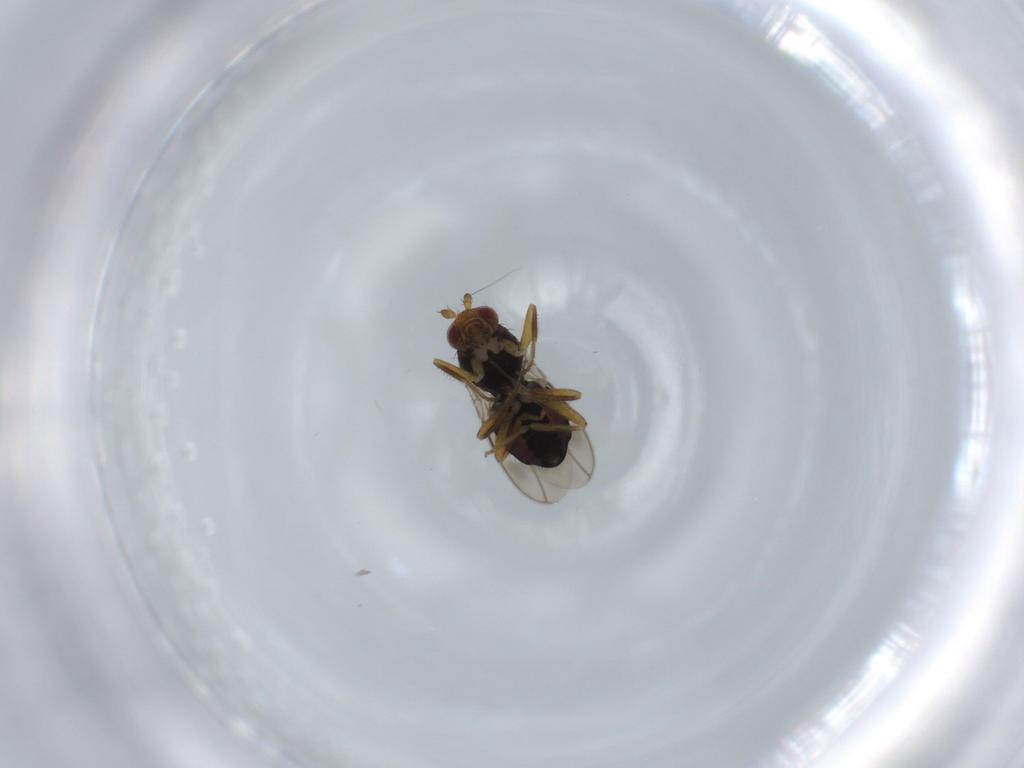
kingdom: Animalia
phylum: Arthropoda
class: Insecta
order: Diptera
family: Sphaeroceridae
